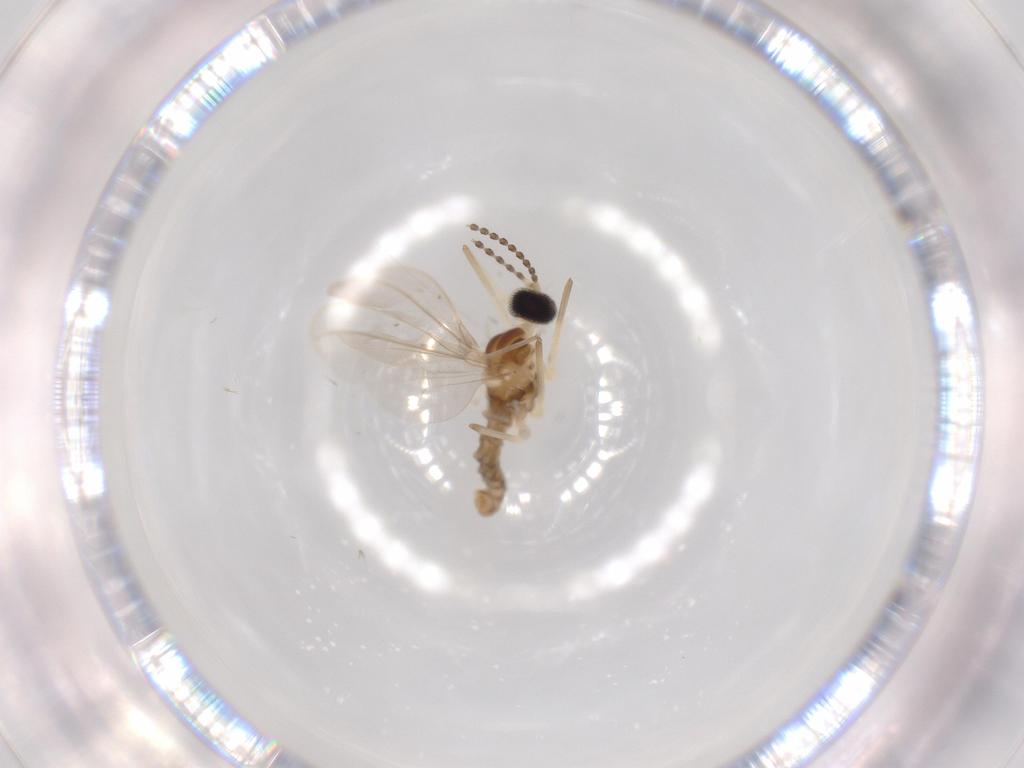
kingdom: Animalia
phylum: Arthropoda
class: Insecta
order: Diptera
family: Cecidomyiidae
